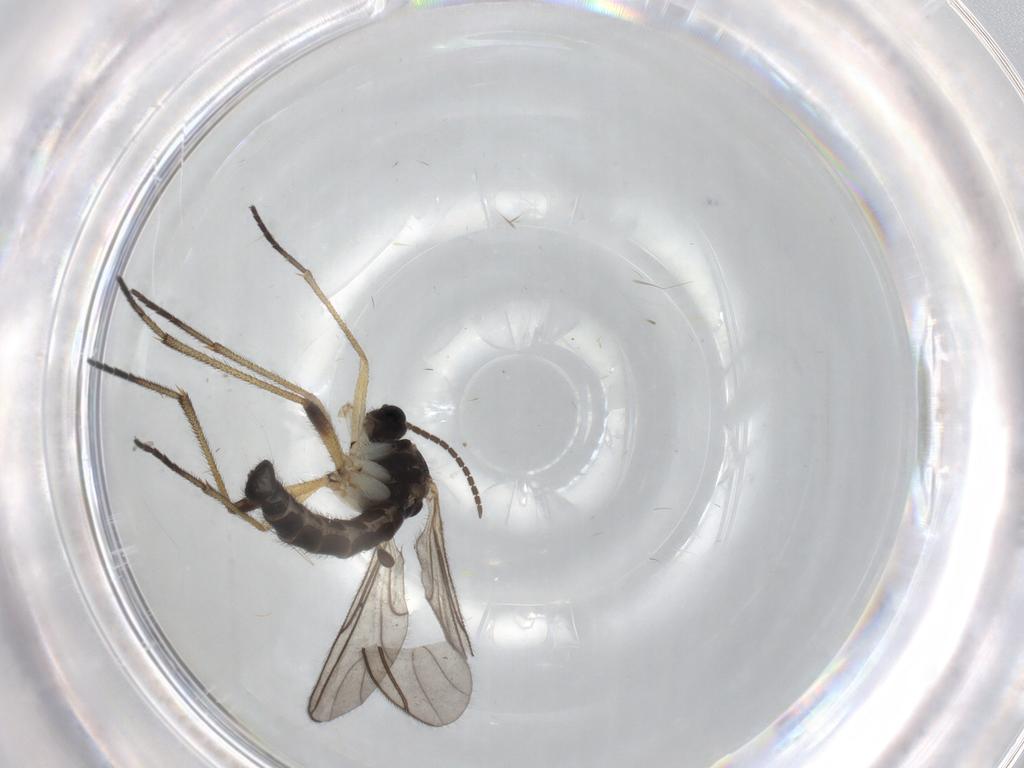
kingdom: Animalia
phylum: Arthropoda
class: Insecta
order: Diptera
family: Sciaridae
